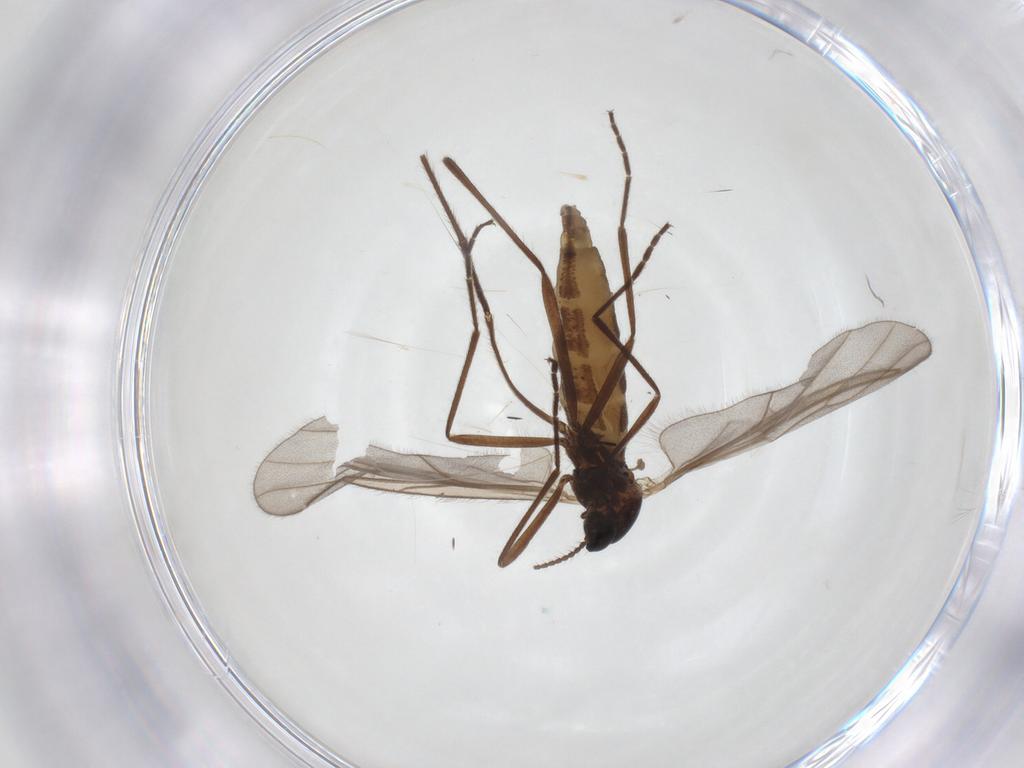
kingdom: Animalia
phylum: Arthropoda
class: Insecta
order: Diptera
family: Cecidomyiidae
